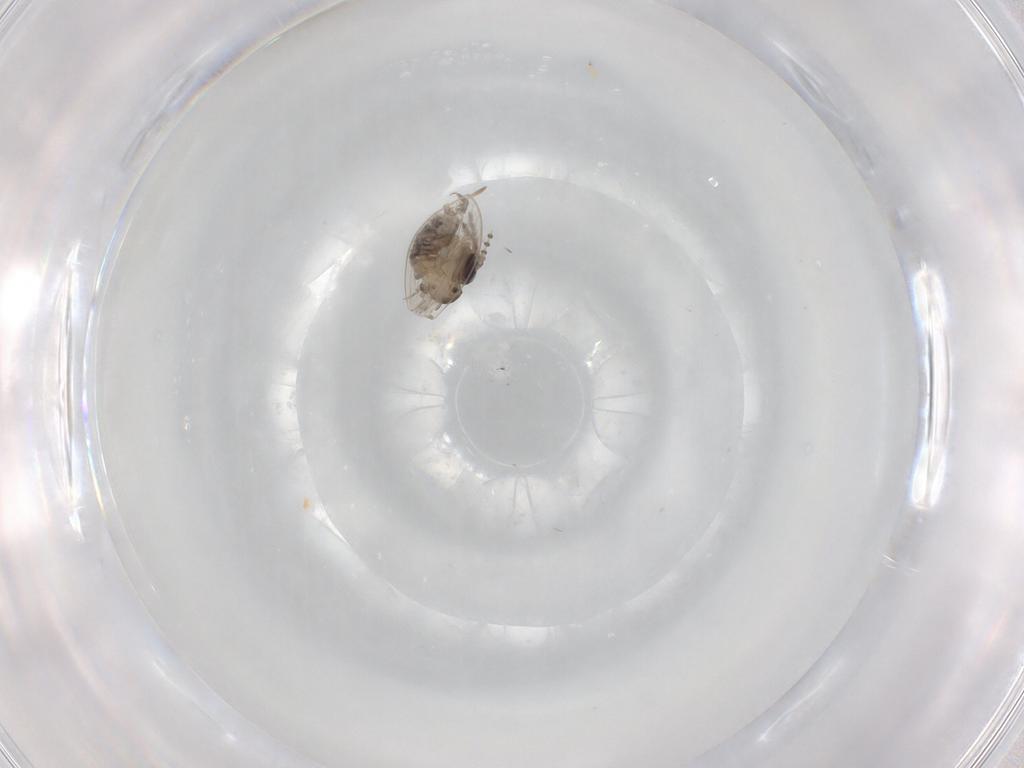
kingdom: Animalia
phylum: Arthropoda
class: Insecta
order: Diptera
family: Psychodidae
